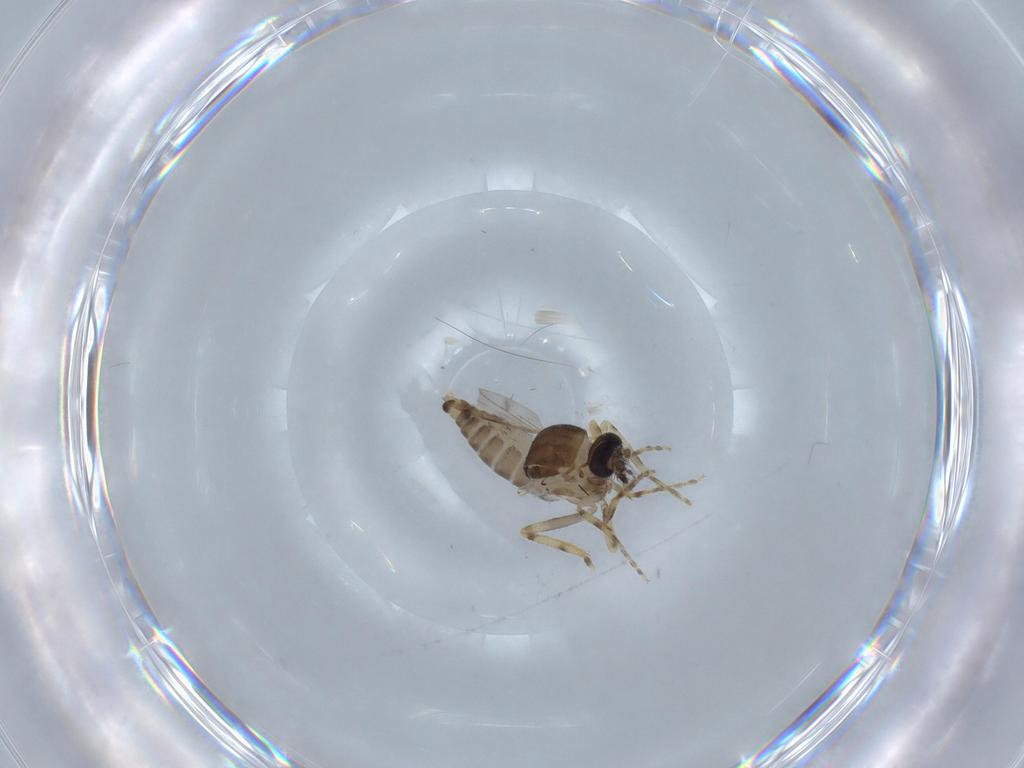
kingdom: Animalia
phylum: Arthropoda
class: Insecta
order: Diptera
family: Ceratopogonidae
